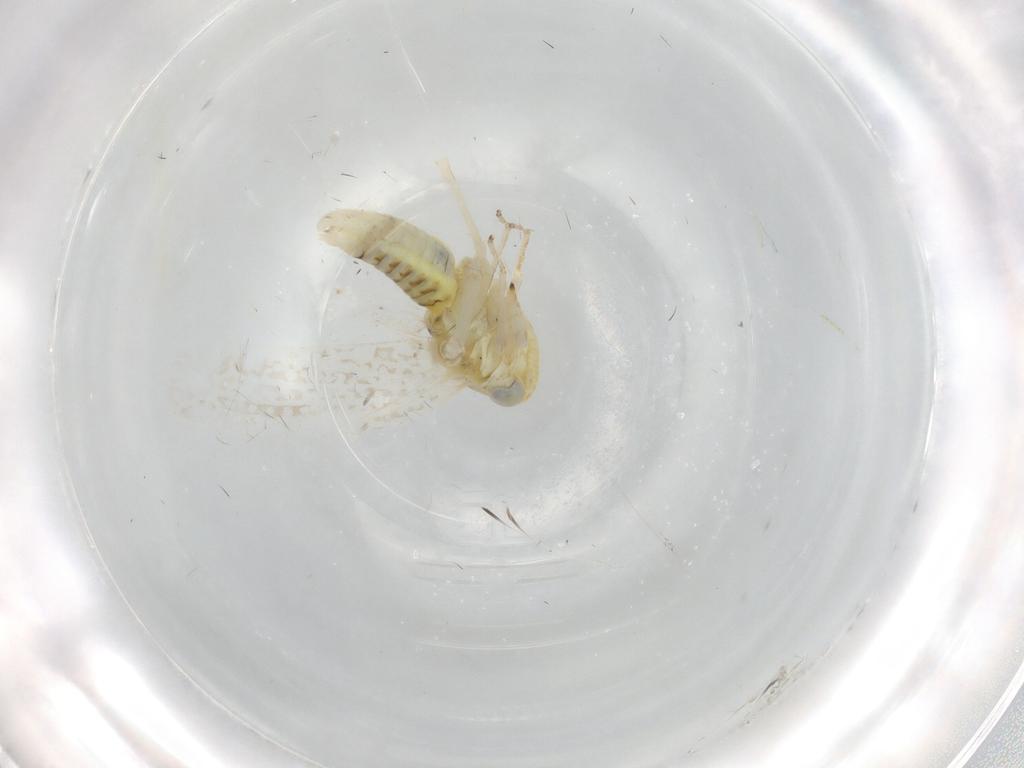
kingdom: Animalia
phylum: Arthropoda
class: Insecta
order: Hemiptera
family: Cicadellidae
